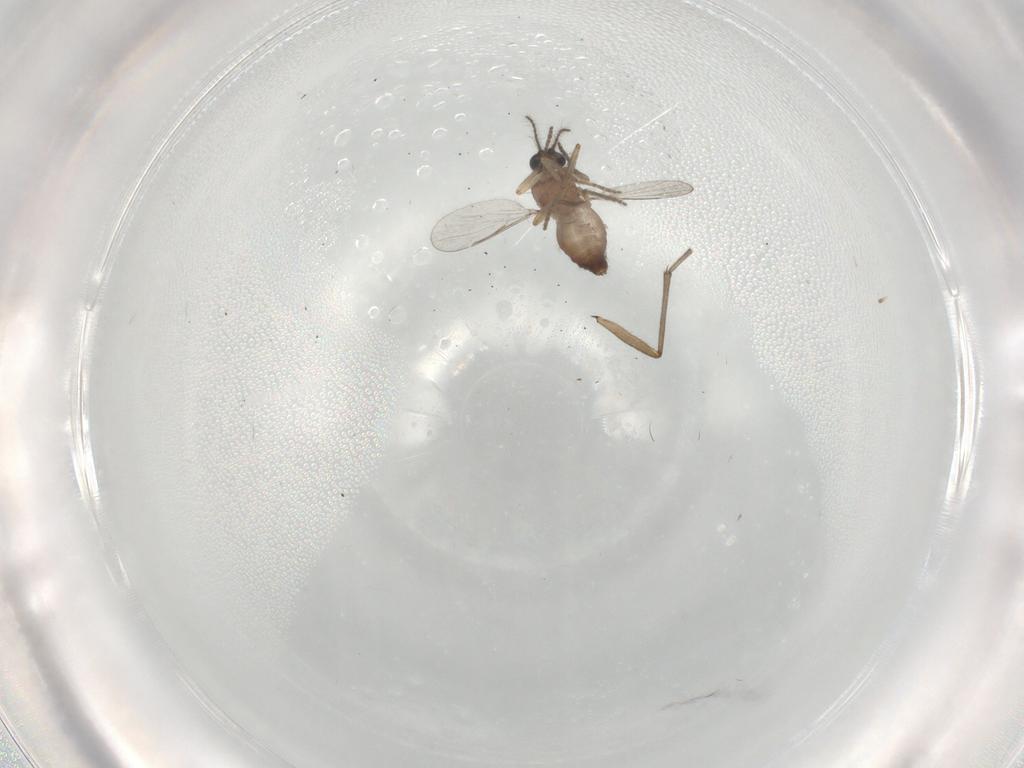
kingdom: Animalia
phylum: Arthropoda
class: Insecta
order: Diptera
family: Ceratopogonidae
